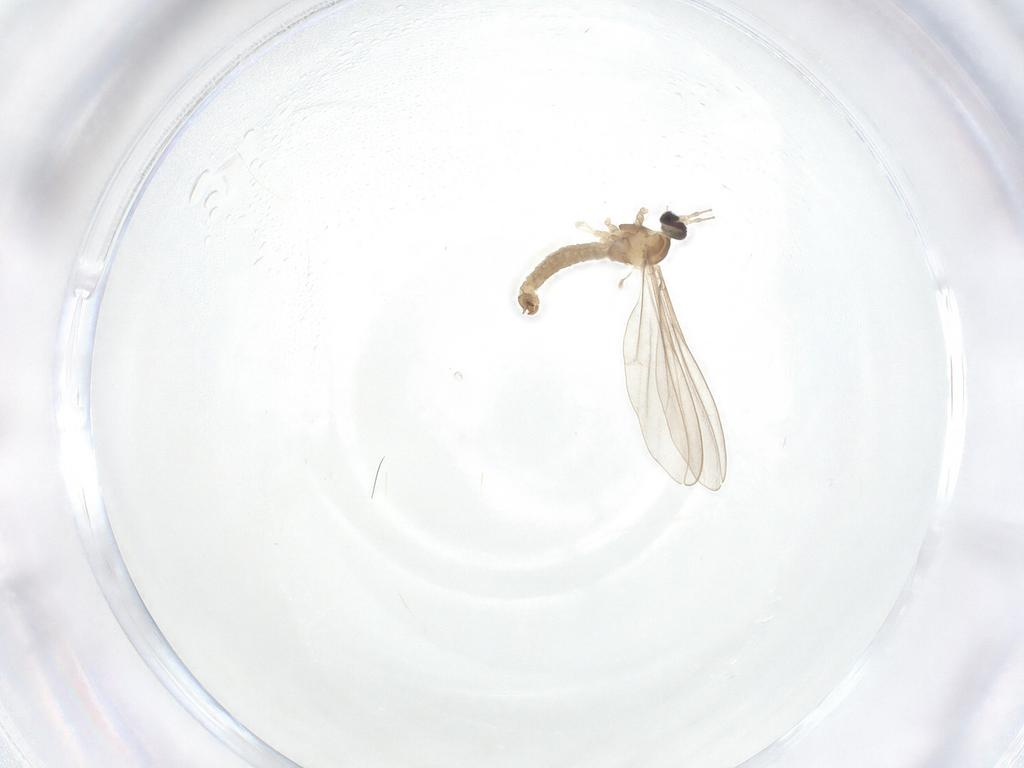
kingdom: Animalia
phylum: Arthropoda
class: Insecta
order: Diptera
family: Cecidomyiidae
